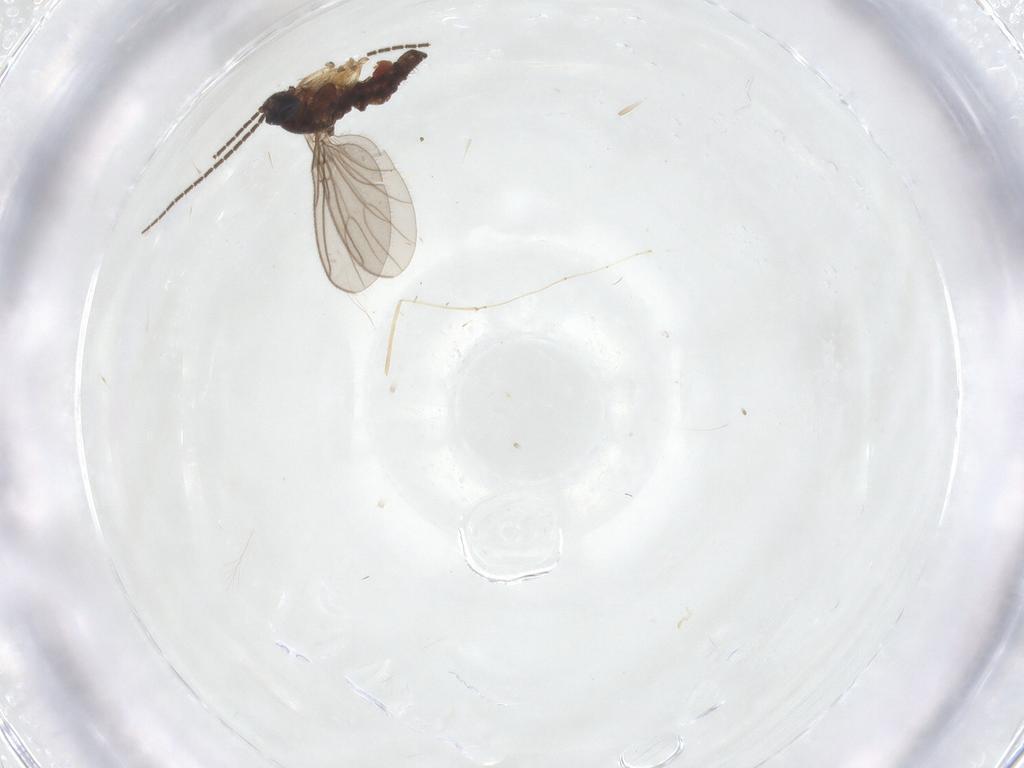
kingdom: Animalia
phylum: Arthropoda
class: Insecta
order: Diptera
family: Sciaridae
